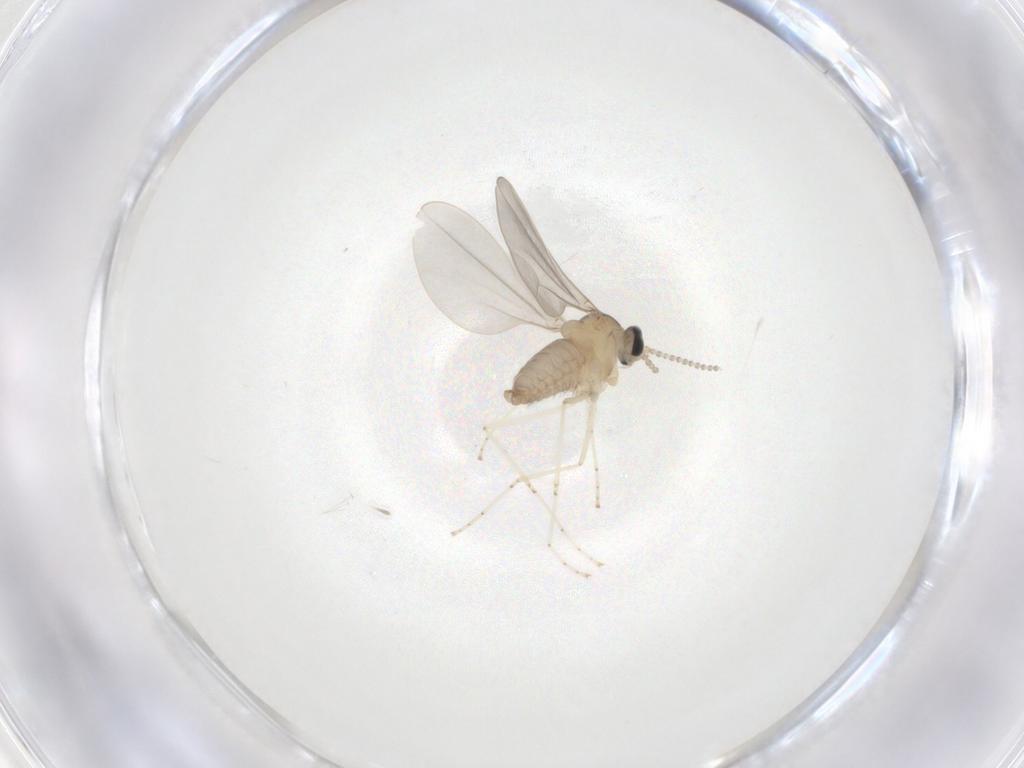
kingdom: Animalia
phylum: Arthropoda
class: Insecta
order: Diptera
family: Cecidomyiidae
